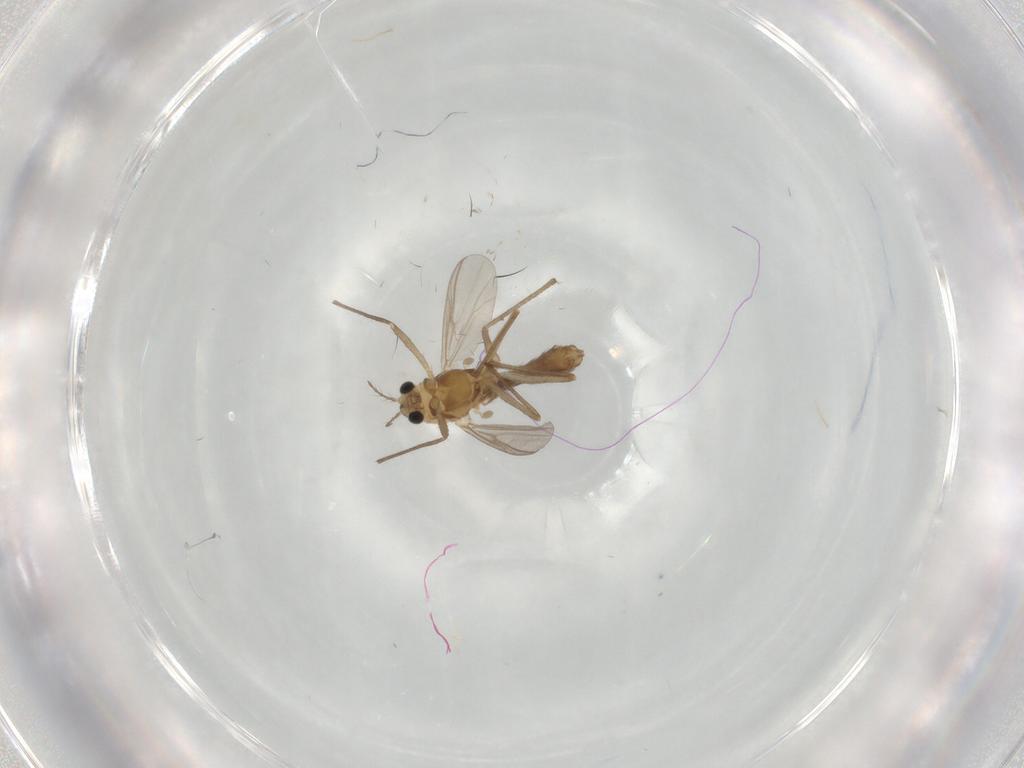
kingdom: Animalia
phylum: Arthropoda
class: Insecta
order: Diptera
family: Chironomidae
